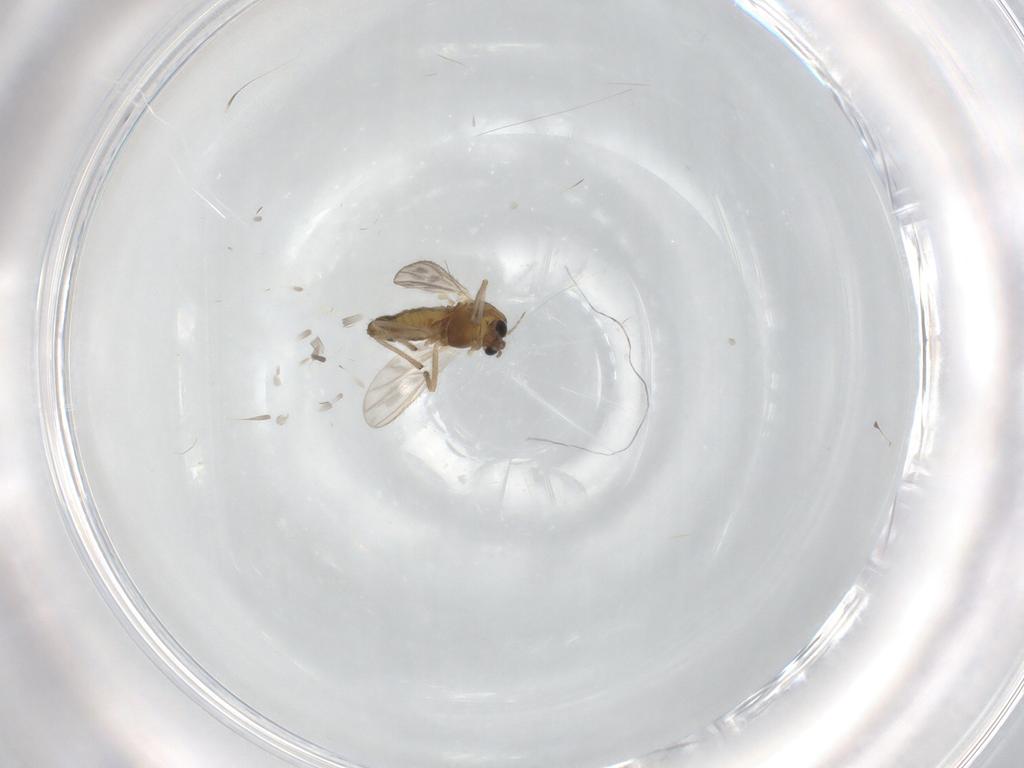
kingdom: Animalia
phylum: Arthropoda
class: Insecta
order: Diptera
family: Cecidomyiidae
